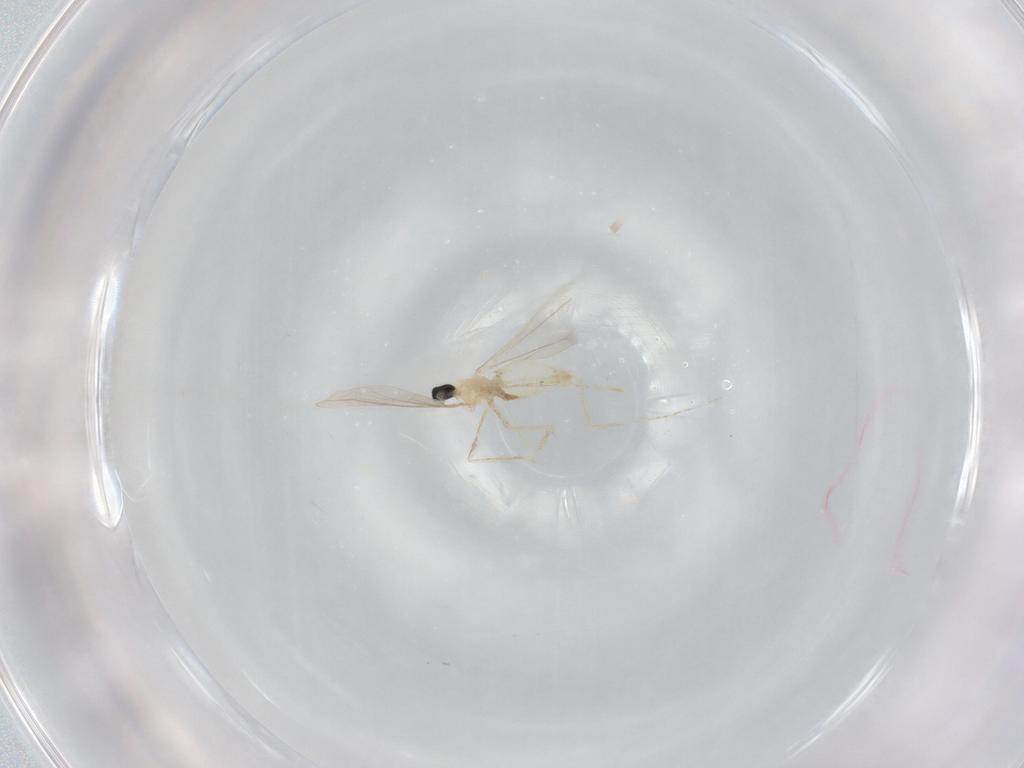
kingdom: Animalia
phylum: Arthropoda
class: Insecta
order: Diptera
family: Cecidomyiidae
